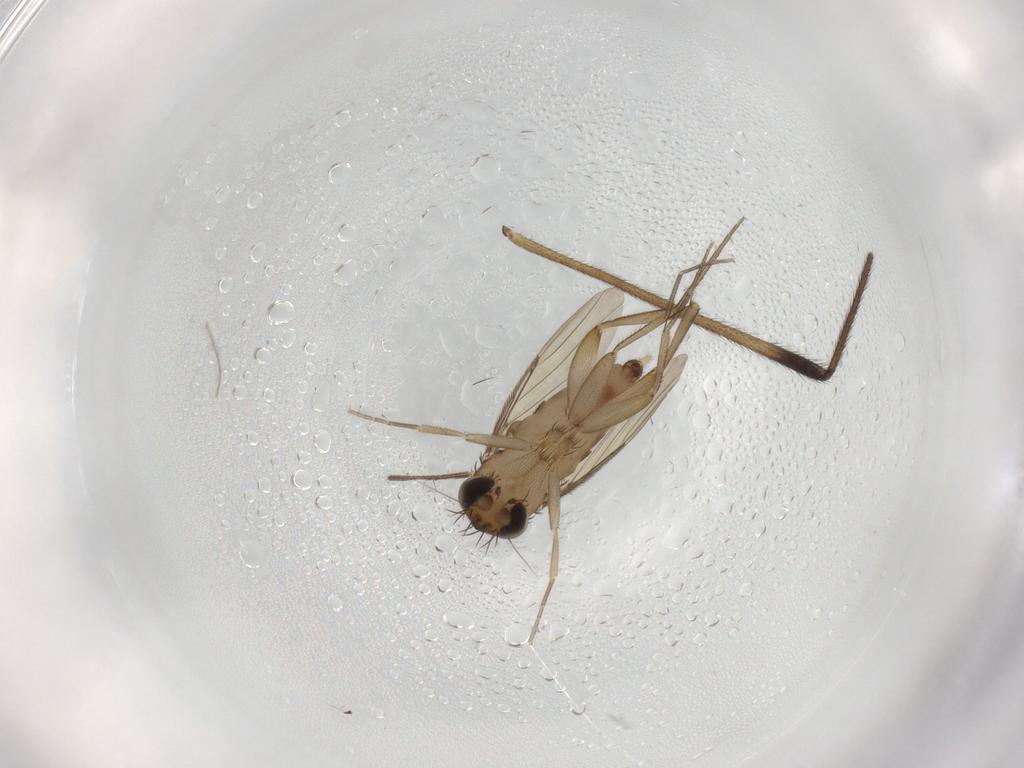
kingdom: Animalia
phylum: Arthropoda
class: Insecta
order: Diptera
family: Phoridae
